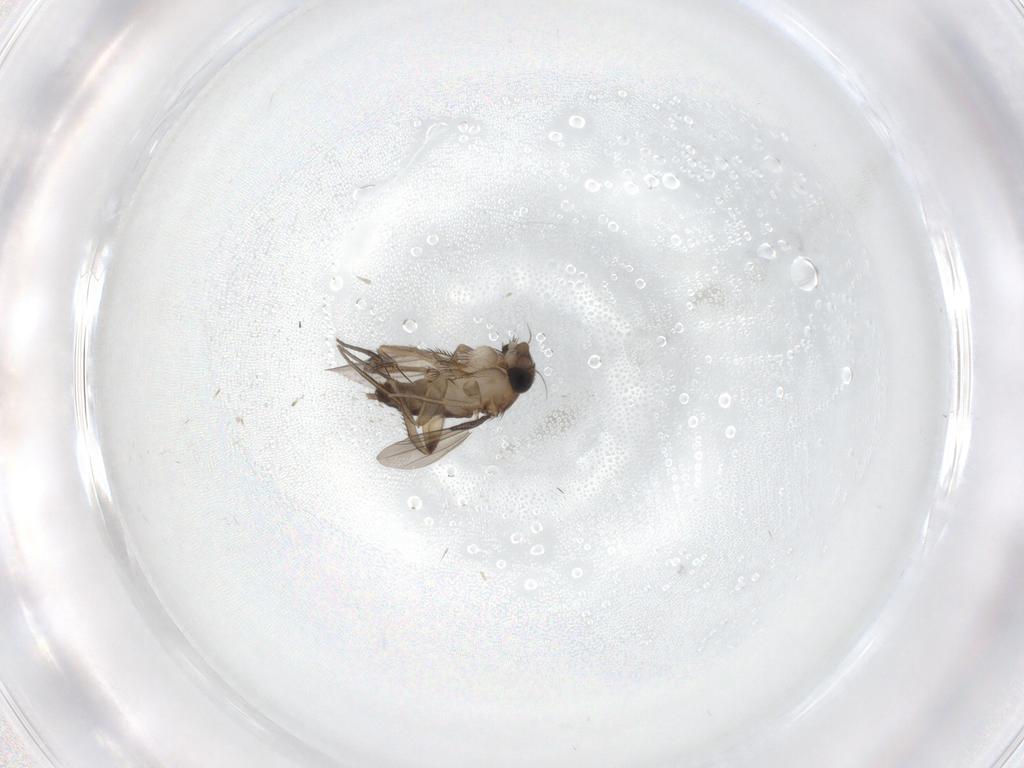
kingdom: Animalia
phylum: Arthropoda
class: Insecta
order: Diptera
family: Phoridae
